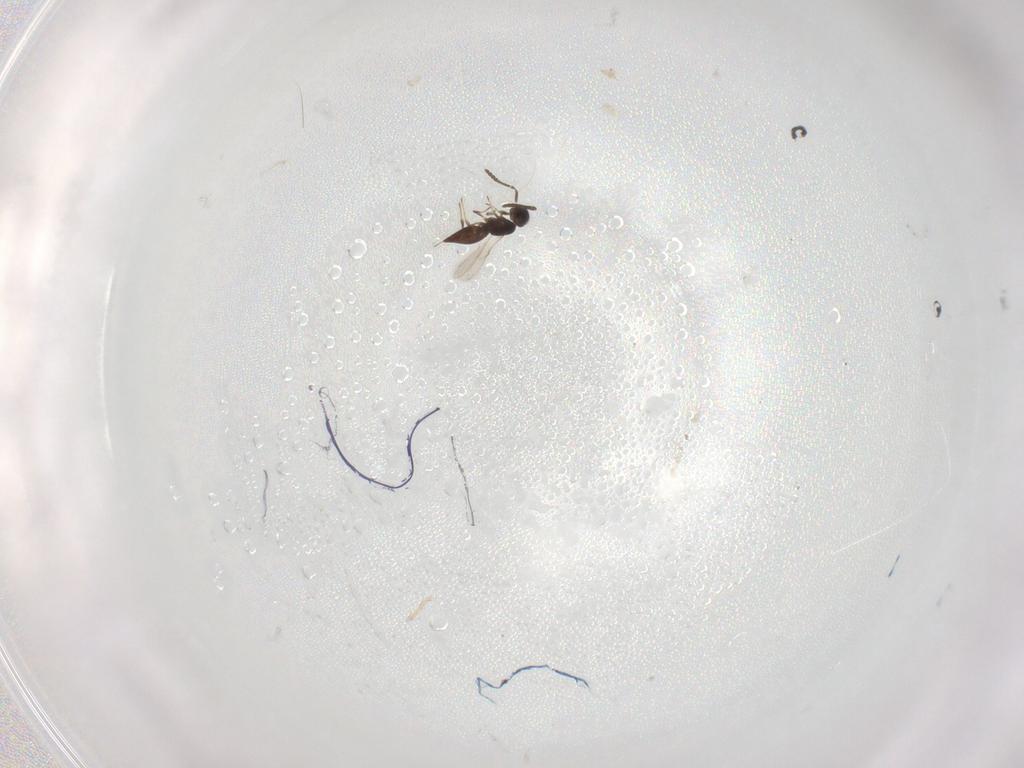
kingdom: Animalia
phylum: Arthropoda
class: Insecta
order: Hymenoptera
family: Scelionidae
